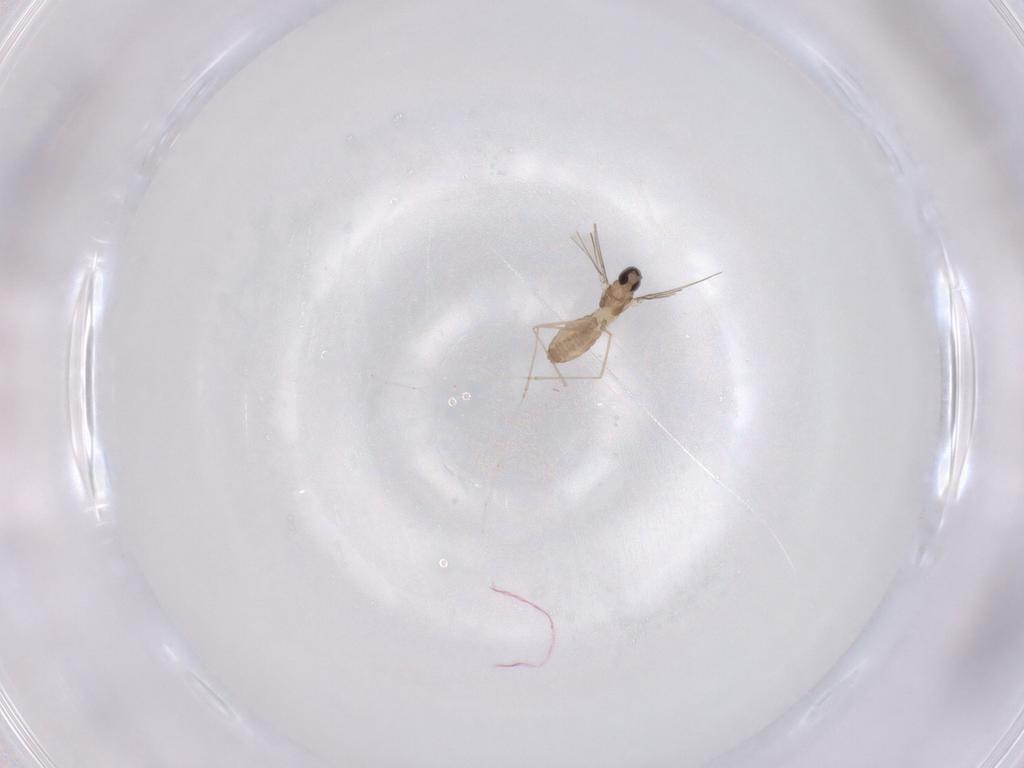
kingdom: Animalia
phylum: Arthropoda
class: Insecta
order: Diptera
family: Cecidomyiidae
